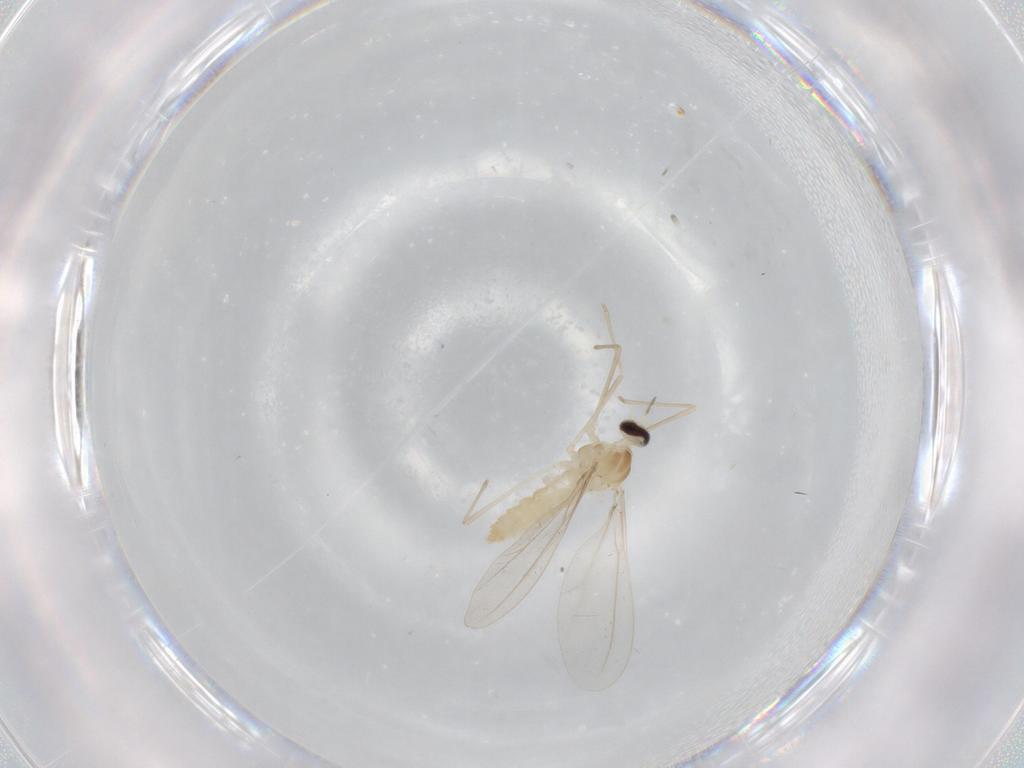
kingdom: Animalia
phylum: Arthropoda
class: Insecta
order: Diptera
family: Cecidomyiidae
